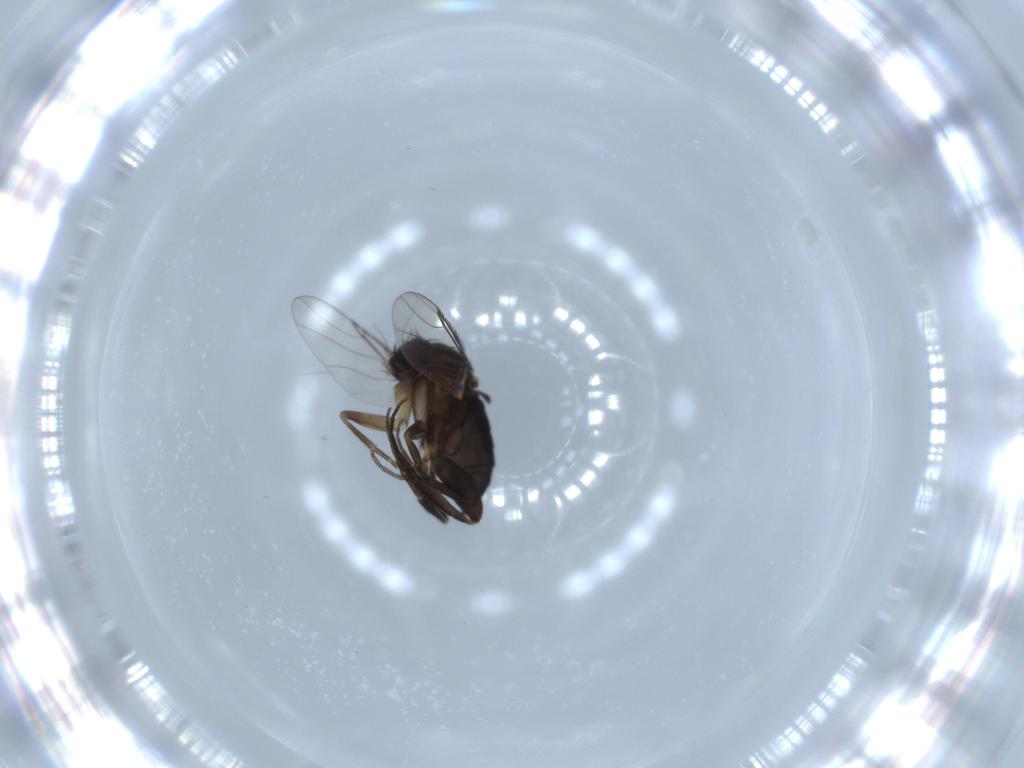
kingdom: Animalia
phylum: Arthropoda
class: Insecta
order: Diptera
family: Phoridae
